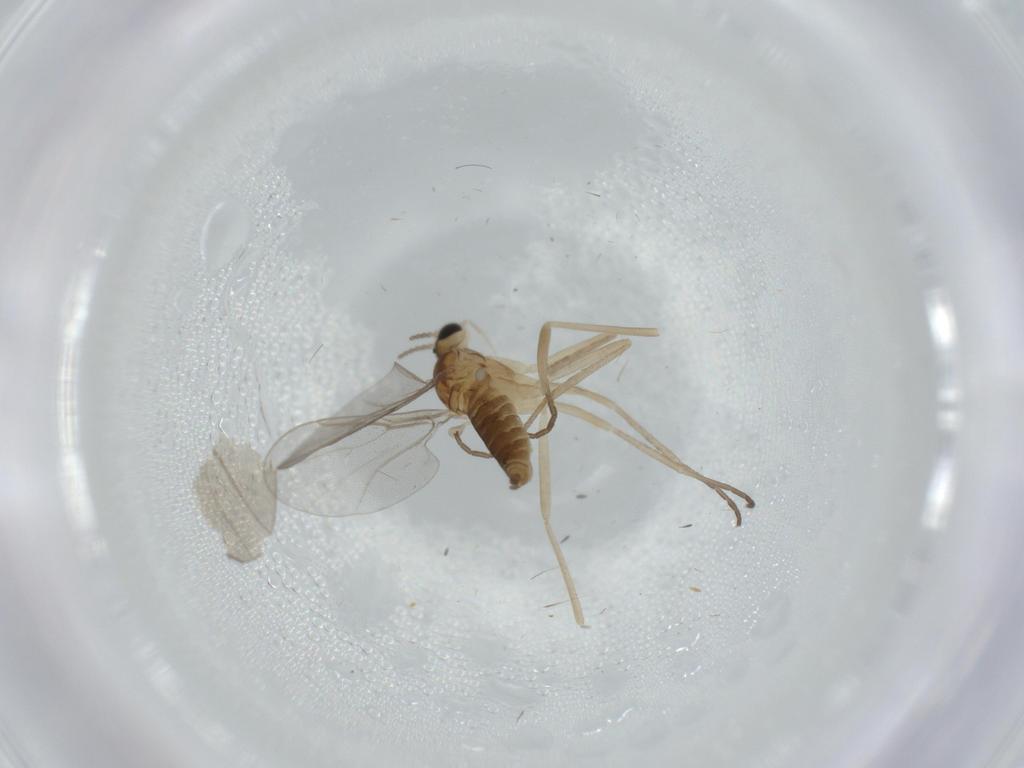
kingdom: Animalia
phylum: Arthropoda
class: Insecta
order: Diptera
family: Cecidomyiidae
